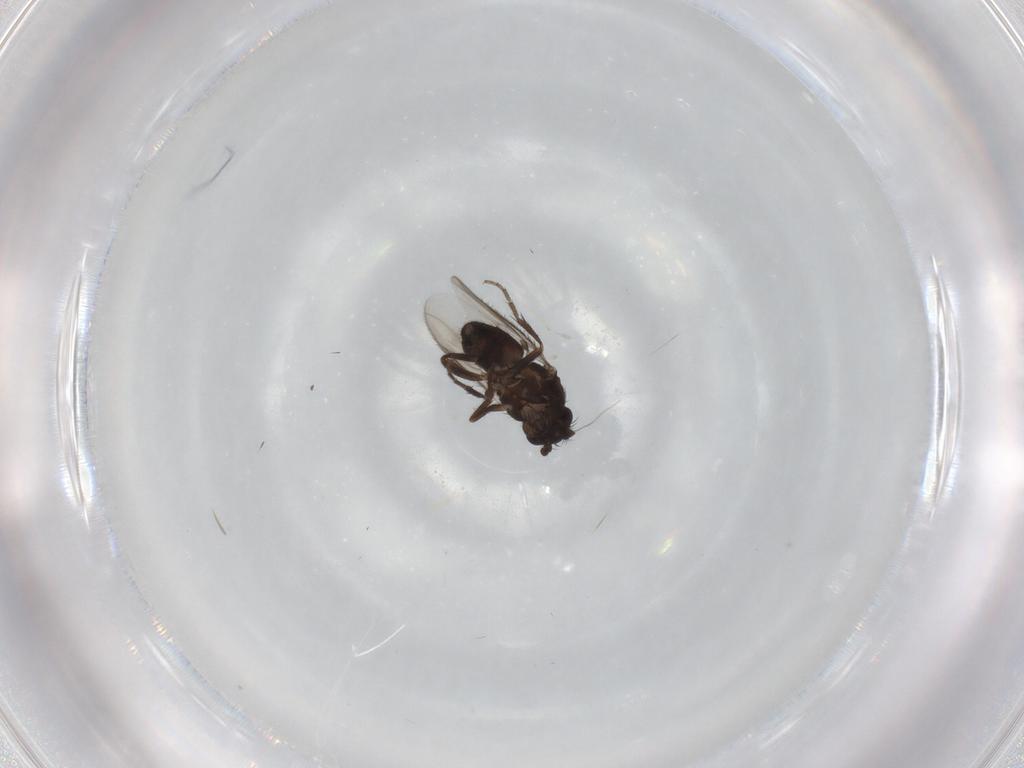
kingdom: Animalia
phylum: Arthropoda
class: Insecta
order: Diptera
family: Sphaeroceridae
